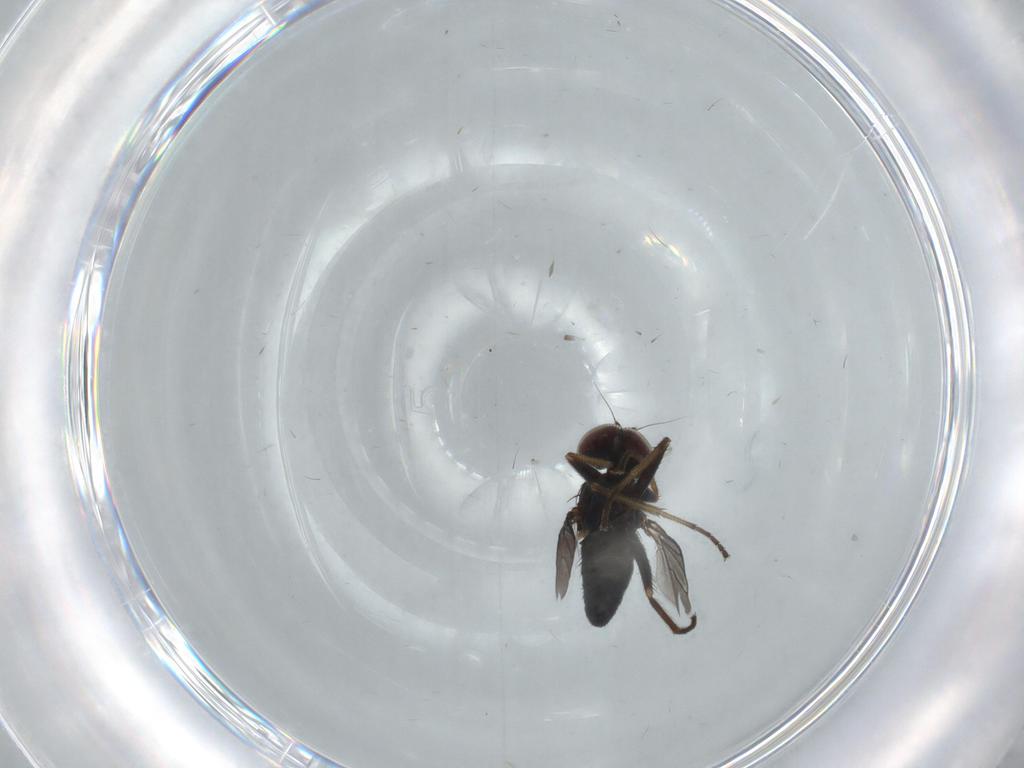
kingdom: Animalia
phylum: Arthropoda
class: Insecta
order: Diptera
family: Dolichopodidae
